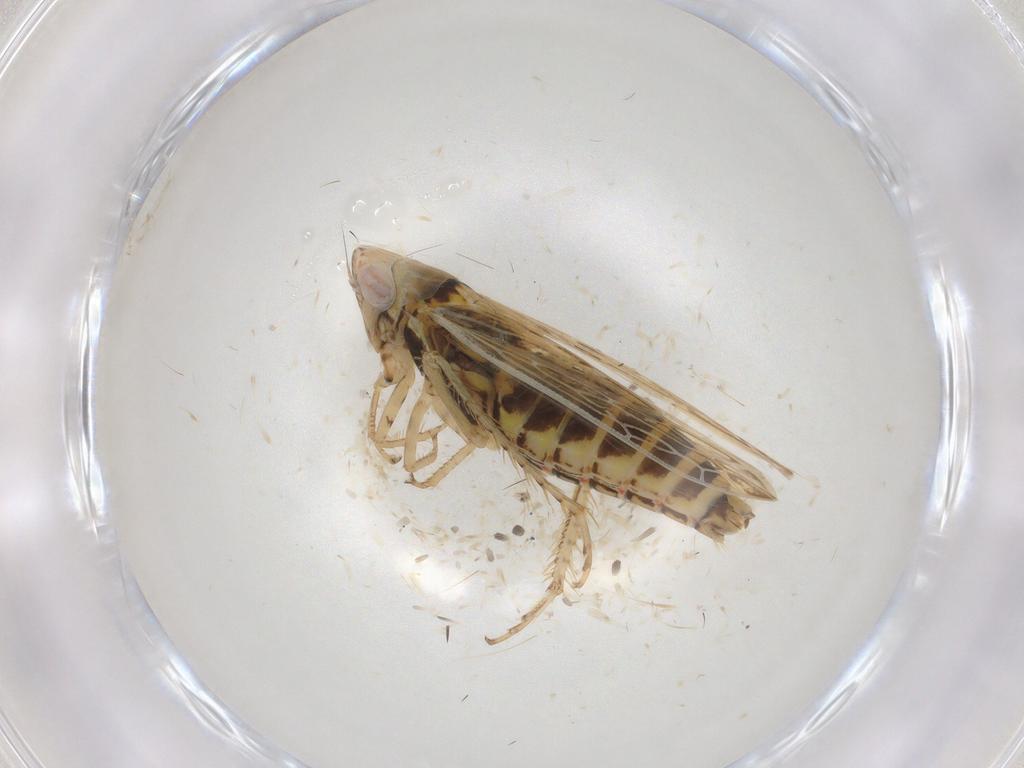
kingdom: Animalia
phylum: Arthropoda
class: Insecta
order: Hemiptera
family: Cicadellidae
